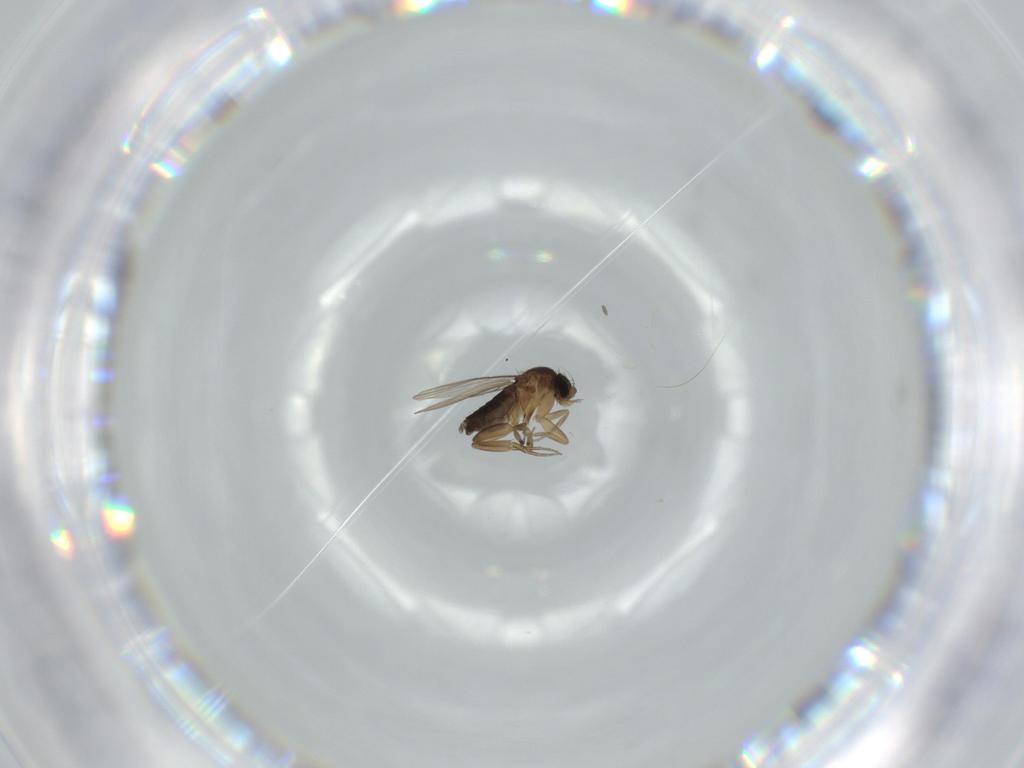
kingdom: Animalia
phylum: Arthropoda
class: Insecta
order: Diptera
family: Phoridae
